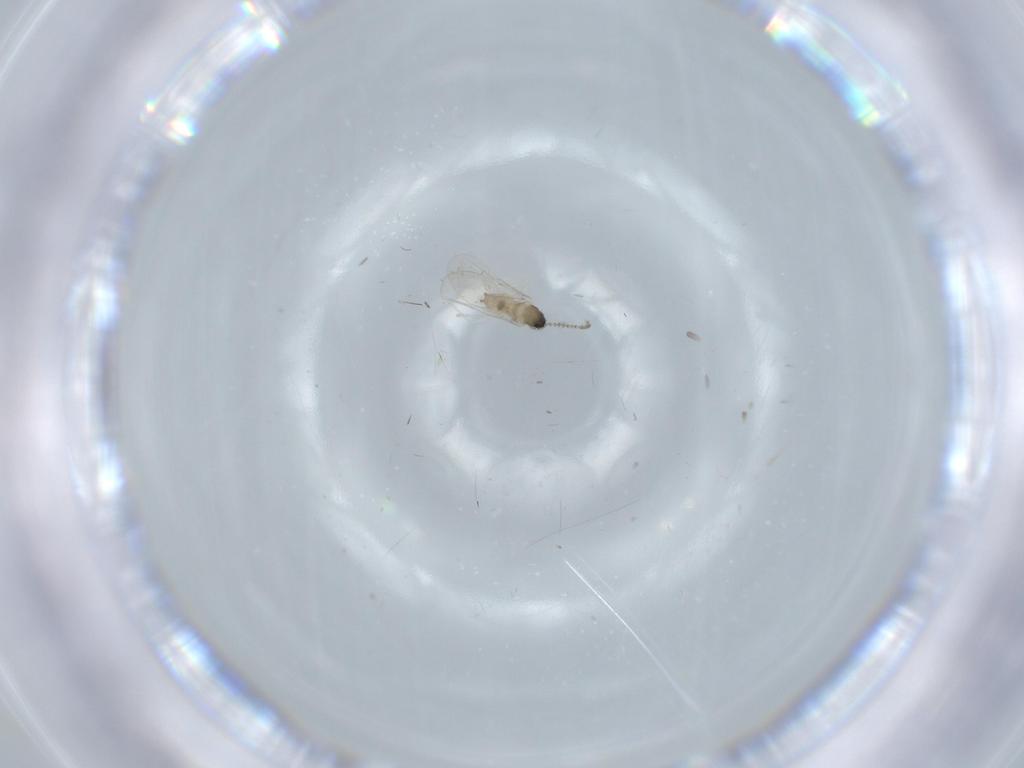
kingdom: Animalia
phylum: Arthropoda
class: Insecta
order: Diptera
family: Cecidomyiidae
